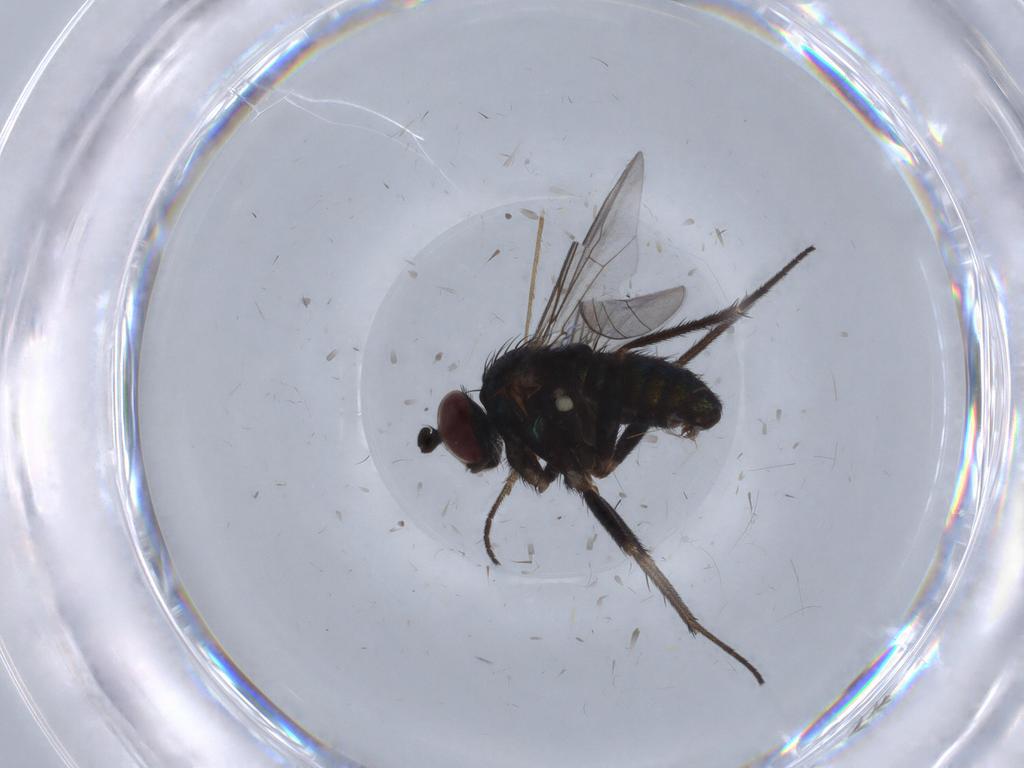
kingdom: Animalia
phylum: Arthropoda
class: Insecta
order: Diptera
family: Dolichopodidae
